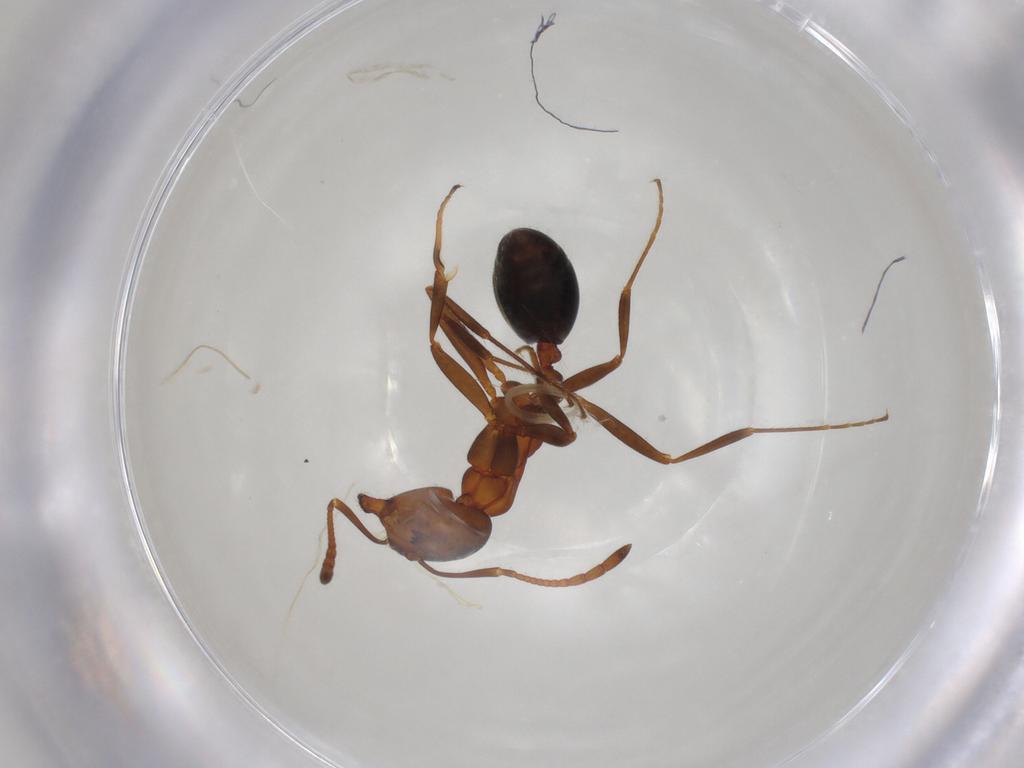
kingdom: Animalia
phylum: Arthropoda
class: Insecta
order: Hymenoptera
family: Formicidae
